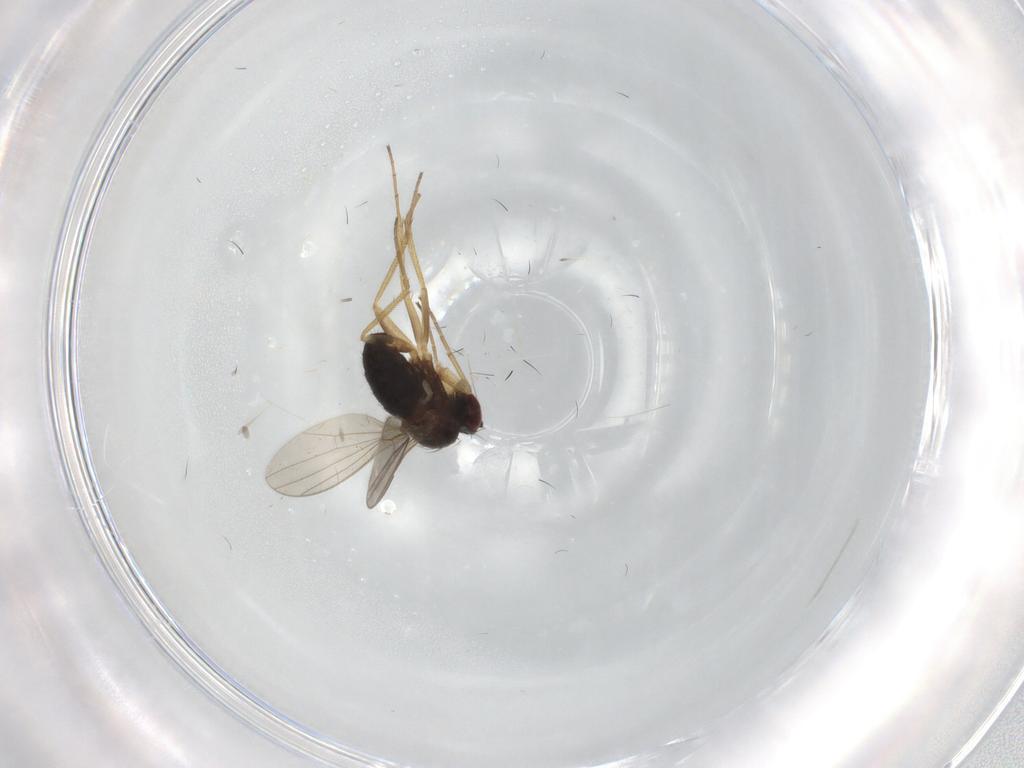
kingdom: Animalia
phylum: Arthropoda
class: Insecta
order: Diptera
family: Dolichopodidae
